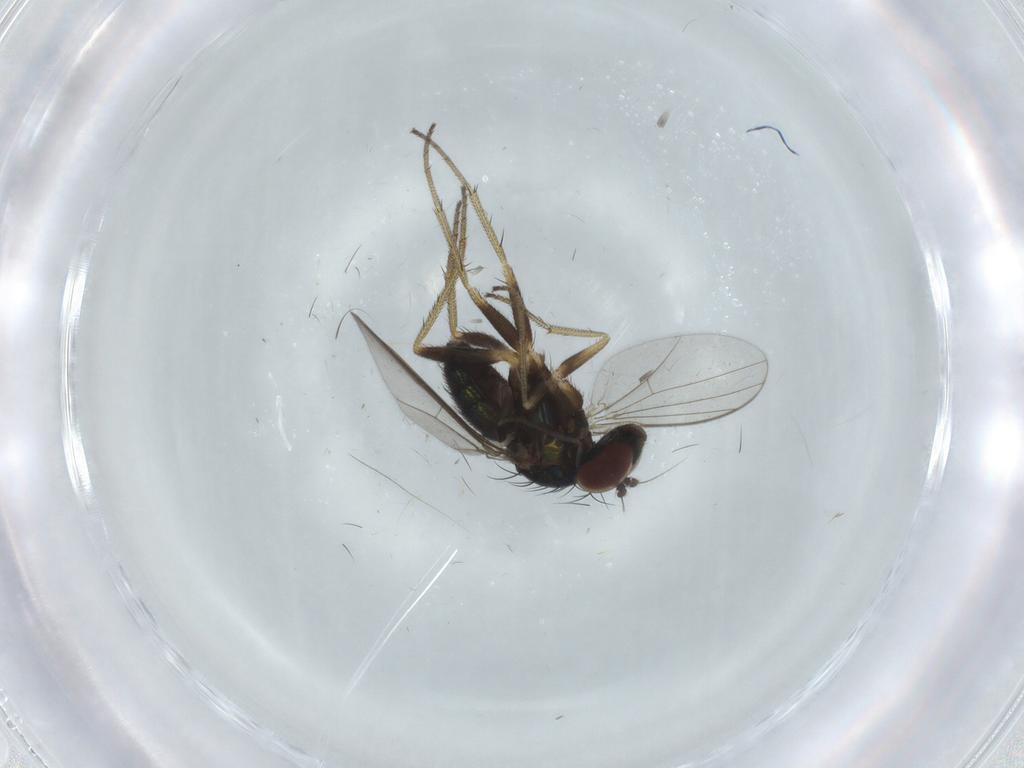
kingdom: Animalia
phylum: Arthropoda
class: Insecta
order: Diptera
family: Dolichopodidae
